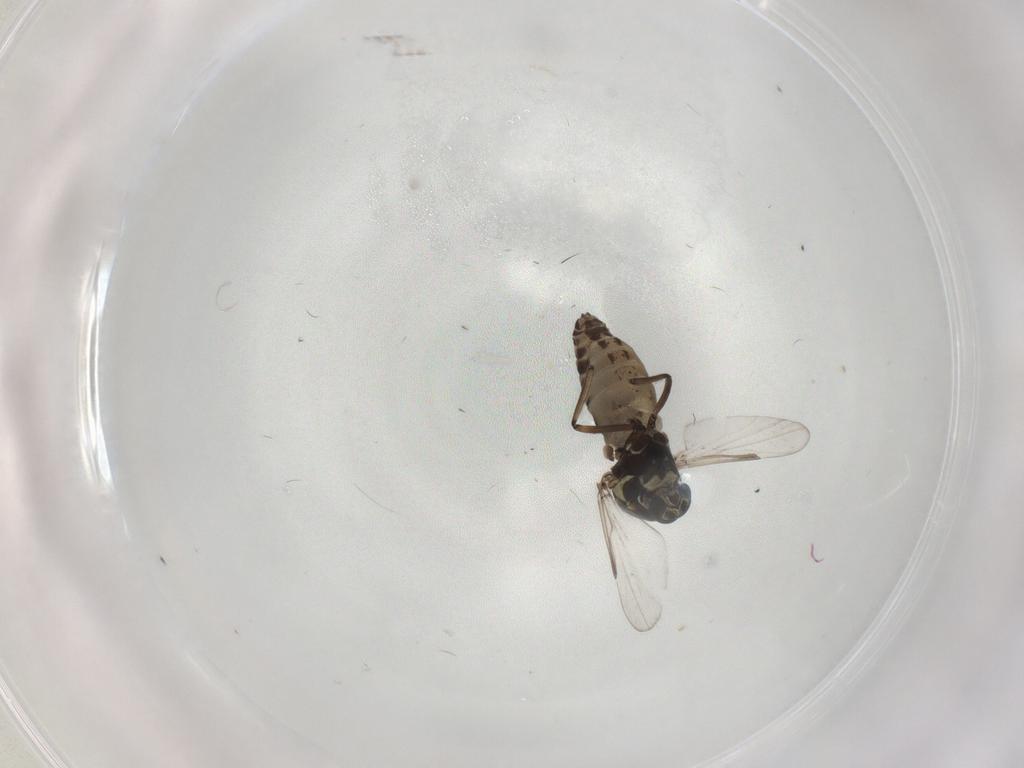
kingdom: Animalia
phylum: Arthropoda
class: Insecta
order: Diptera
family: Ceratopogonidae
